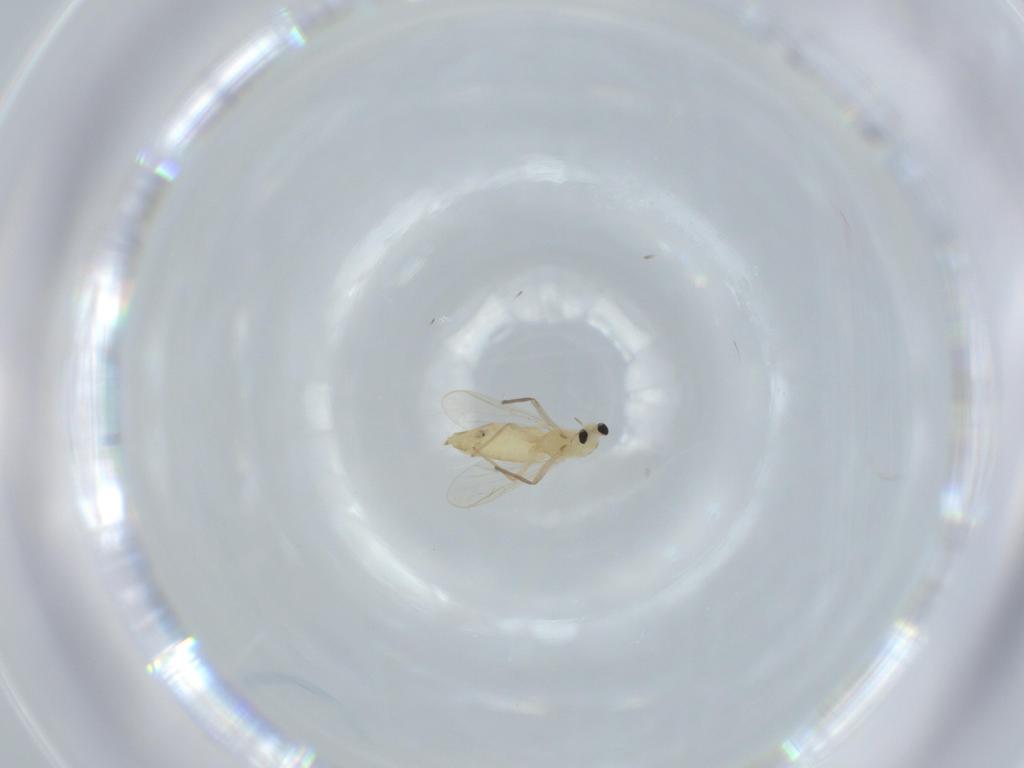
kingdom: Animalia
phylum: Arthropoda
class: Insecta
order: Diptera
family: Chironomidae
